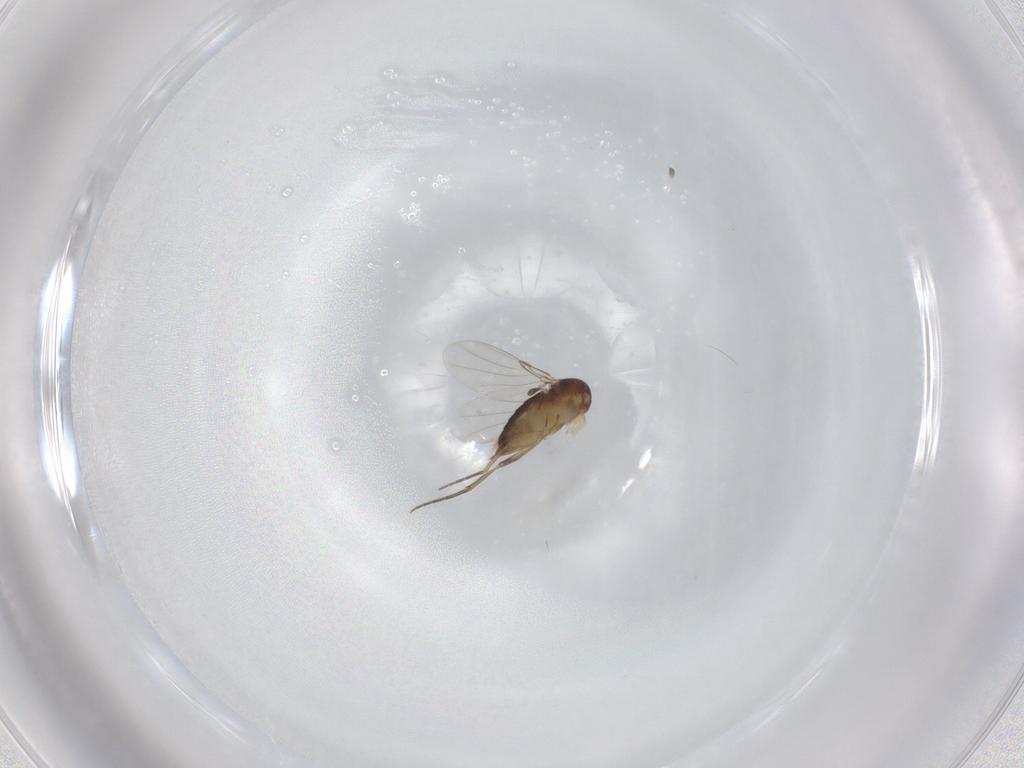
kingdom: Animalia
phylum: Arthropoda
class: Insecta
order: Diptera
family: Phoridae
